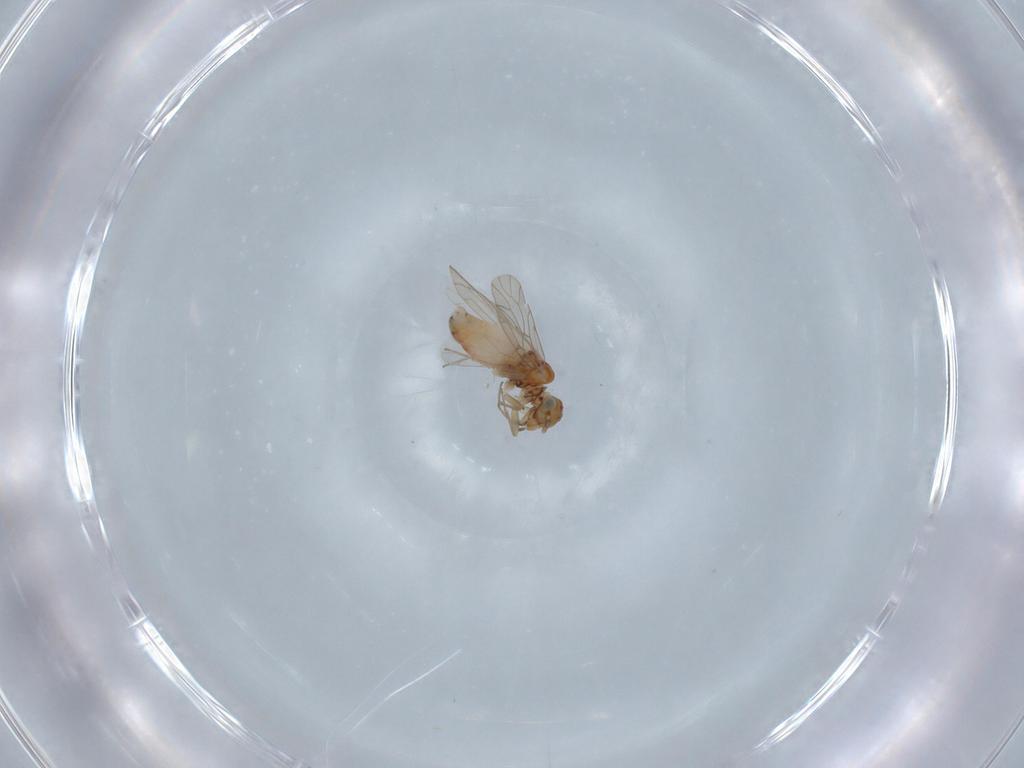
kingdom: Animalia
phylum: Arthropoda
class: Insecta
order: Psocodea
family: Peripsocidae
